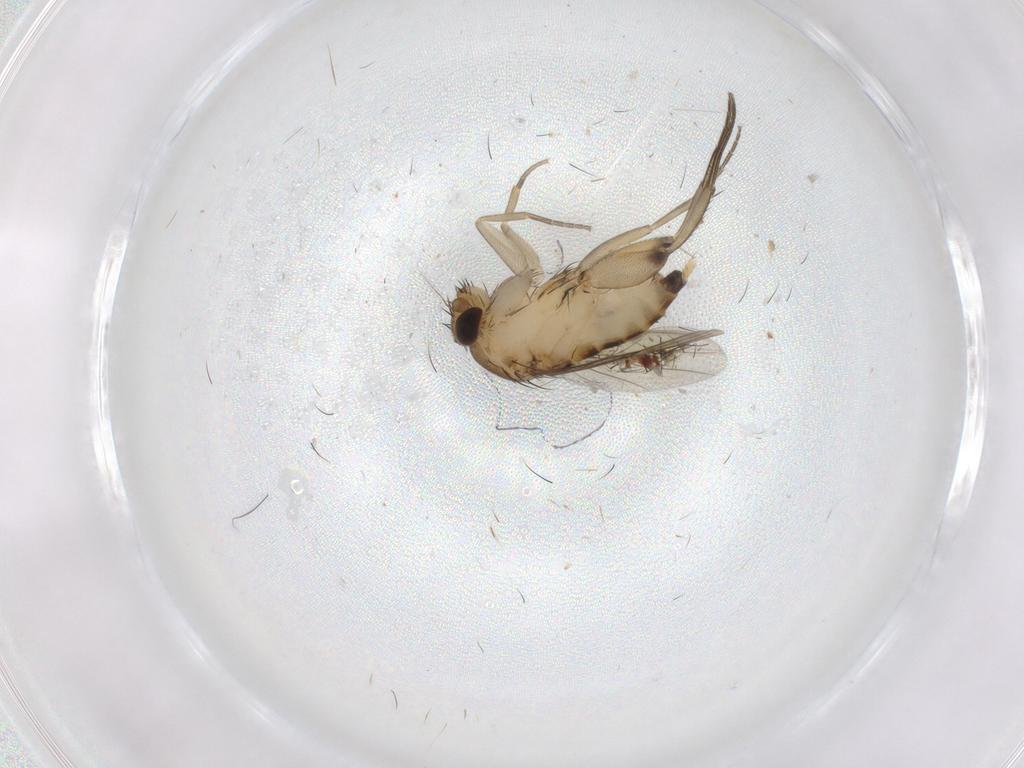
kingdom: Animalia
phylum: Arthropoda
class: Insecta
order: Diptera
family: Phoridae
